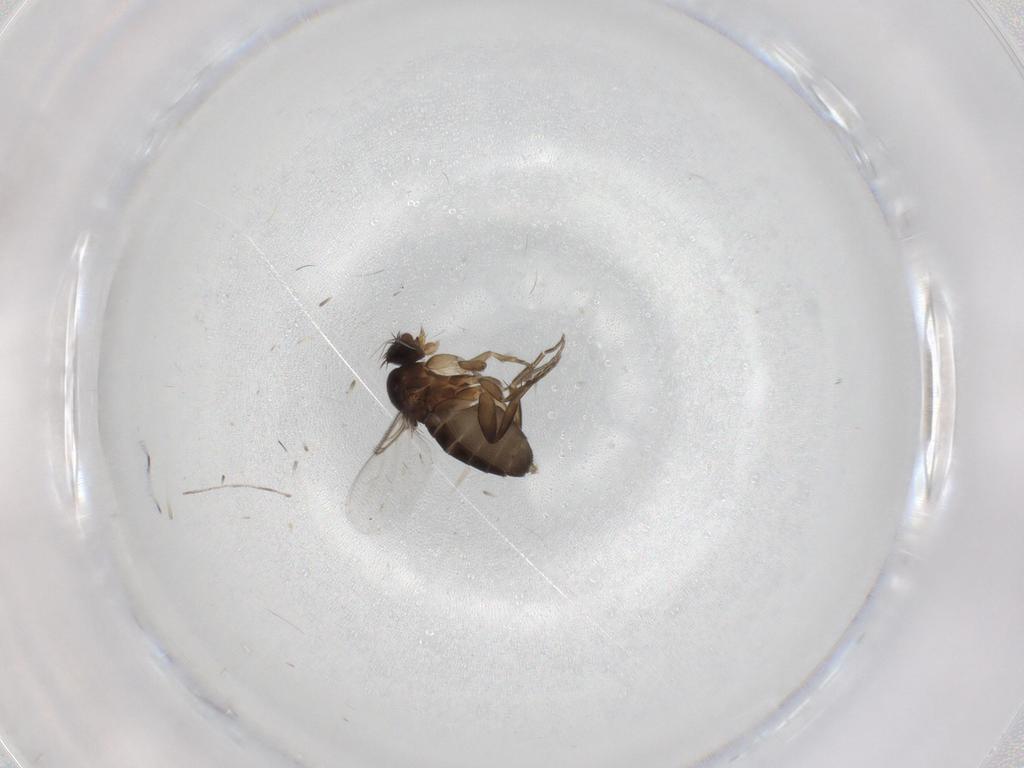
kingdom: Animalia
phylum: Arthropoda
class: Insecta
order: Diptera
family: Phoridae
